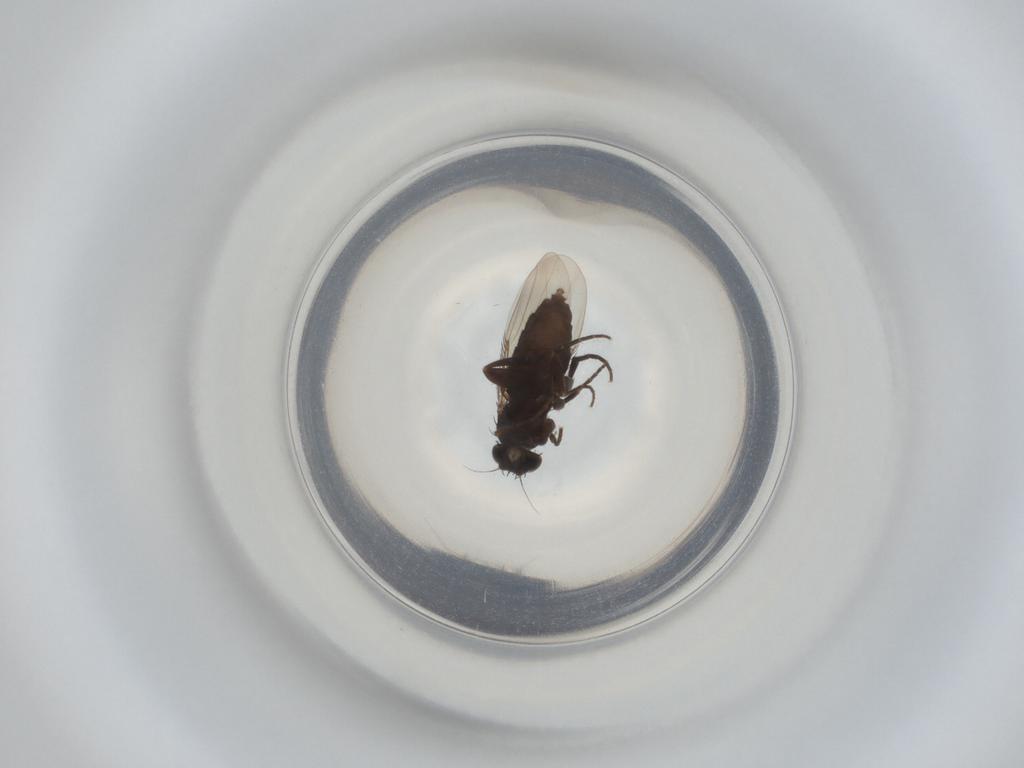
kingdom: Animalia
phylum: Arthropoda
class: Insecta
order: Diptera
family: Phoridae
